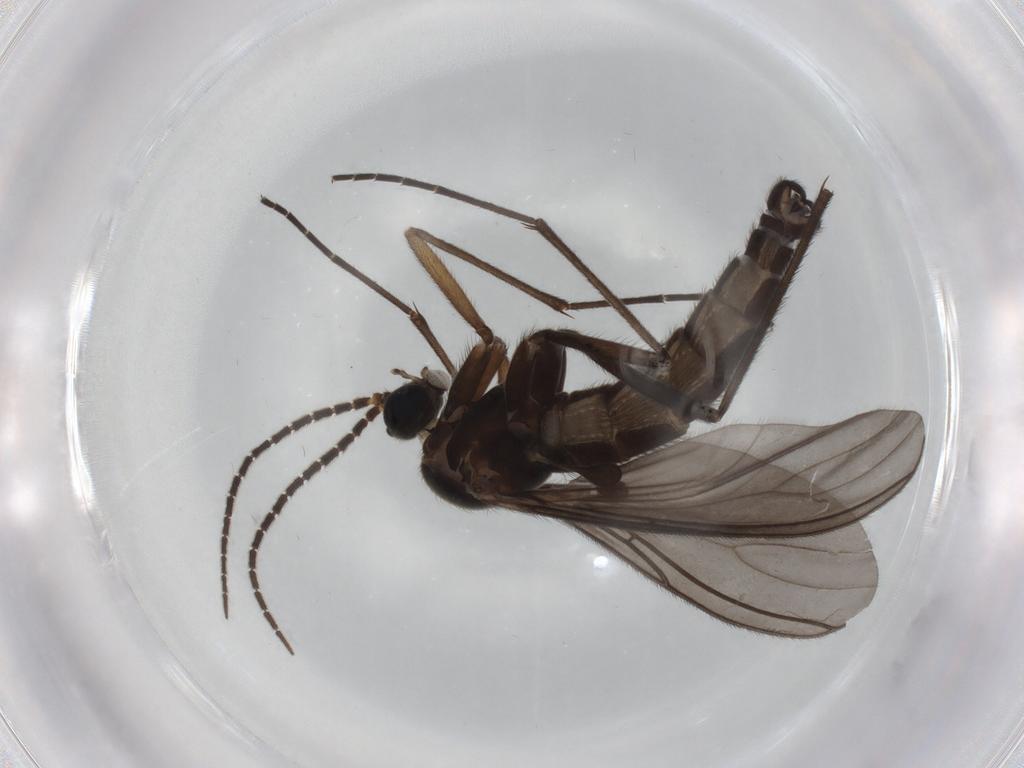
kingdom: Animalia
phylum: Arthropoda
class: Insecta
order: Diptera
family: Sciaridae
